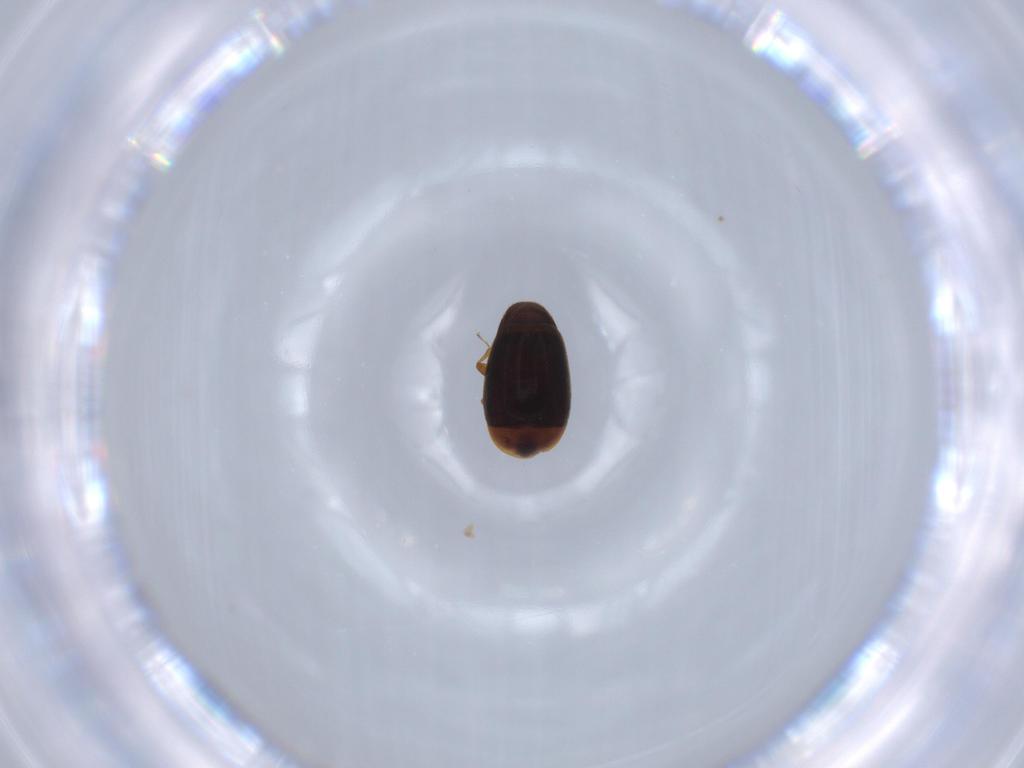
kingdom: Animalia
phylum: Arthropoda
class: Insecta
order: Coleoptera
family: Corylophidae
